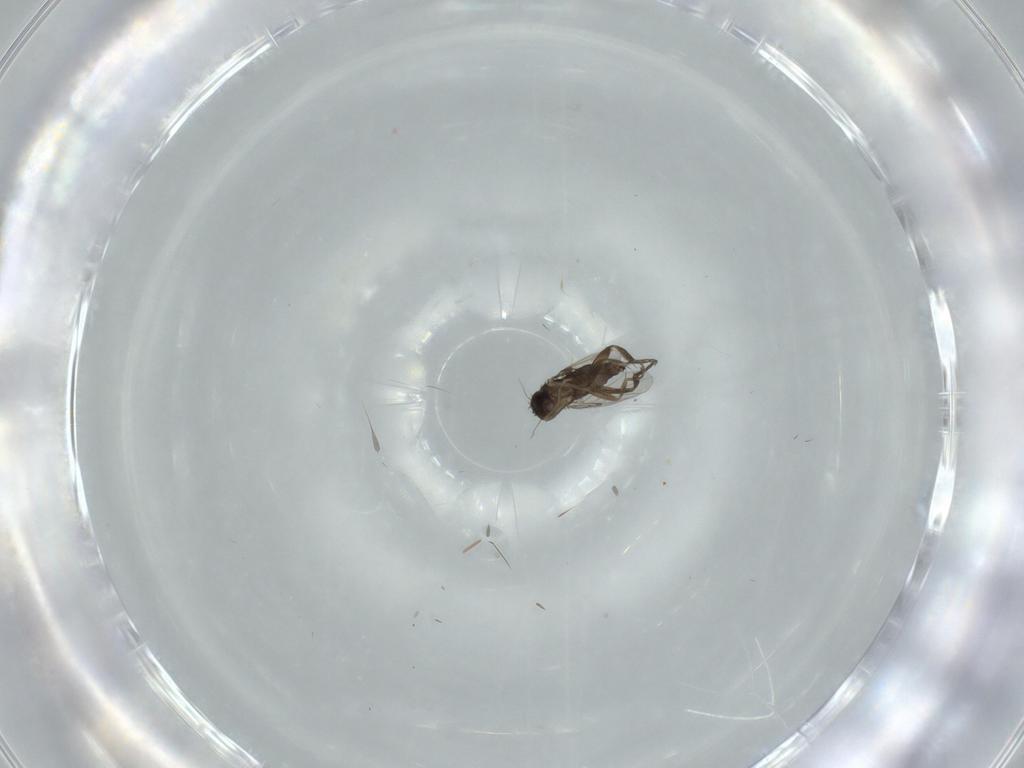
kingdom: Animalia
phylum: Arthropoda
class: Insecta
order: Diptera
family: Phoridae
